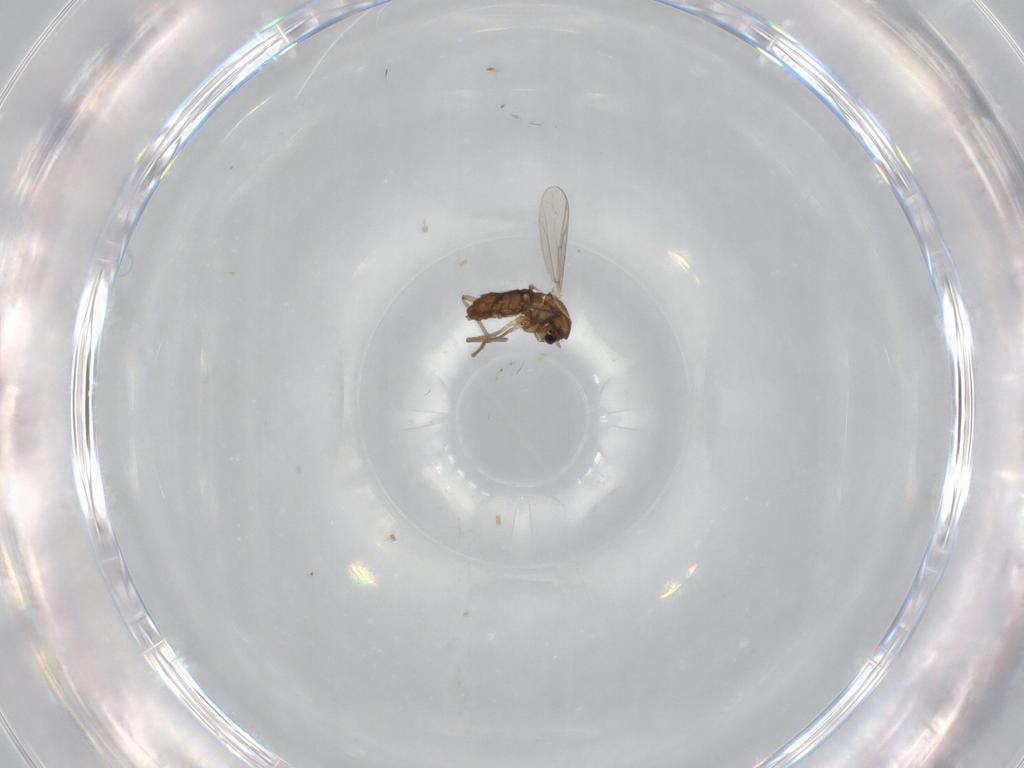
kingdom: Animalia
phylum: Arthropoda
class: Insecta
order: Diptera
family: Chironomidae
